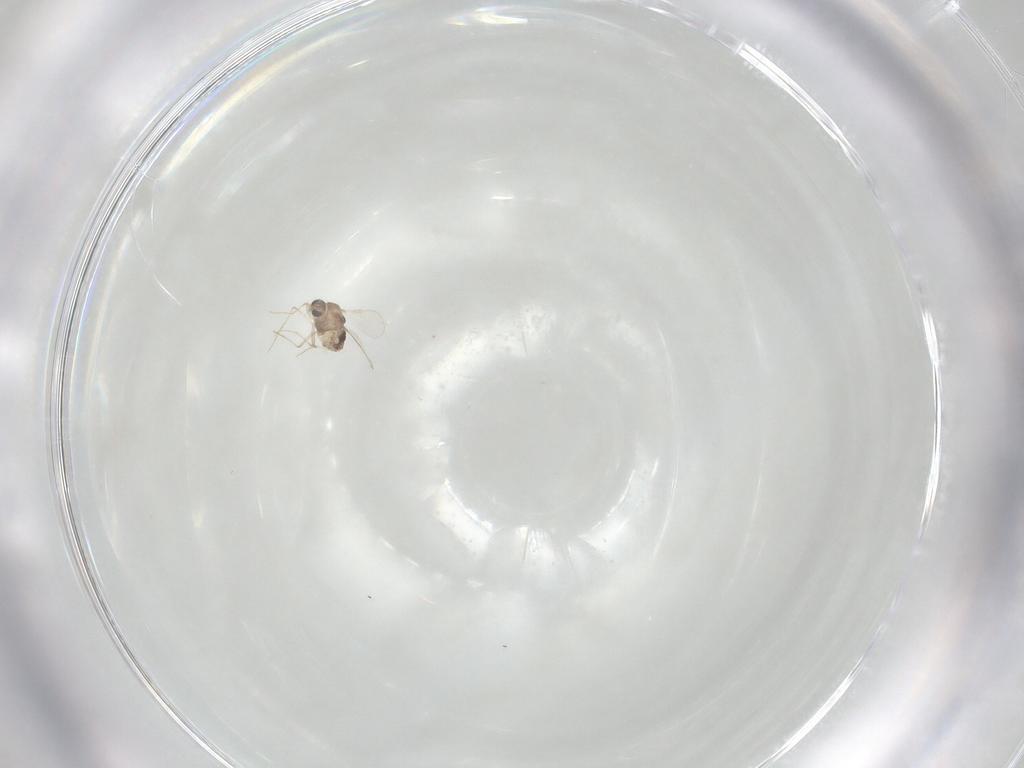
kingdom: Animalia
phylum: Arthropoda
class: Insecta
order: Diptera
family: Chironomidae
